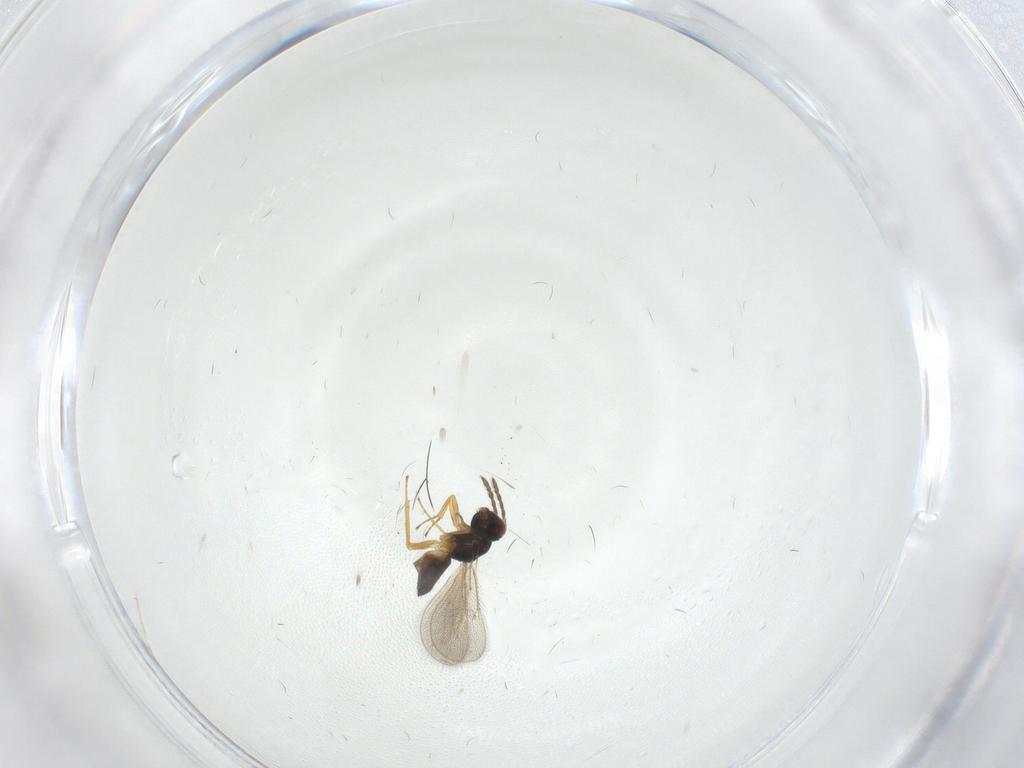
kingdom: Animalia
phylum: Arthropoda
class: Insecta
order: Hymenoptera
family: Eulophidae
